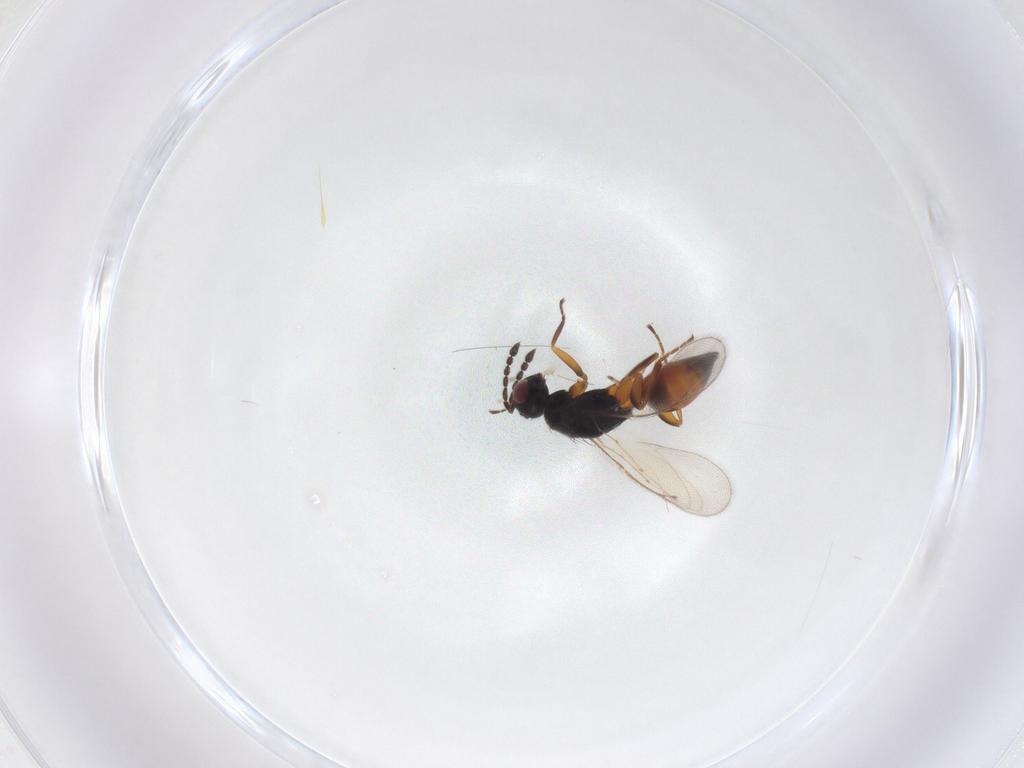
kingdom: Animalia
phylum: Arthropoda
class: Insecta
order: Hymenoptera
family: Eulophidae
